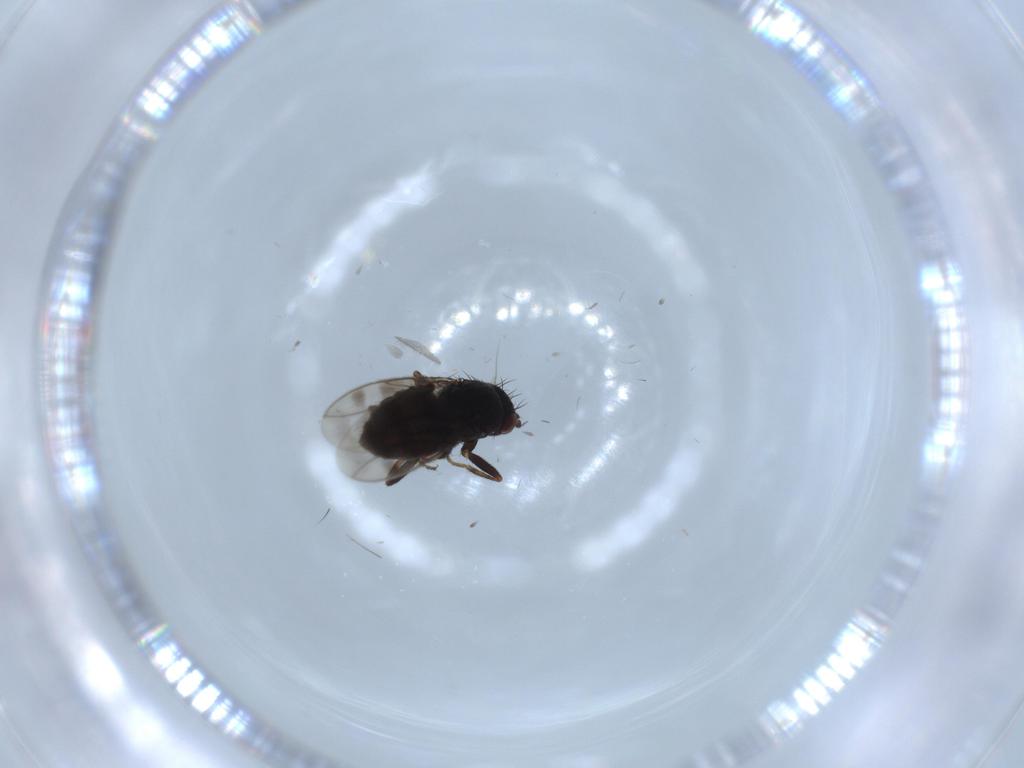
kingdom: Animalia
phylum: Arthropoda
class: Insecta
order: Diptera
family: Sphaeroceridae
